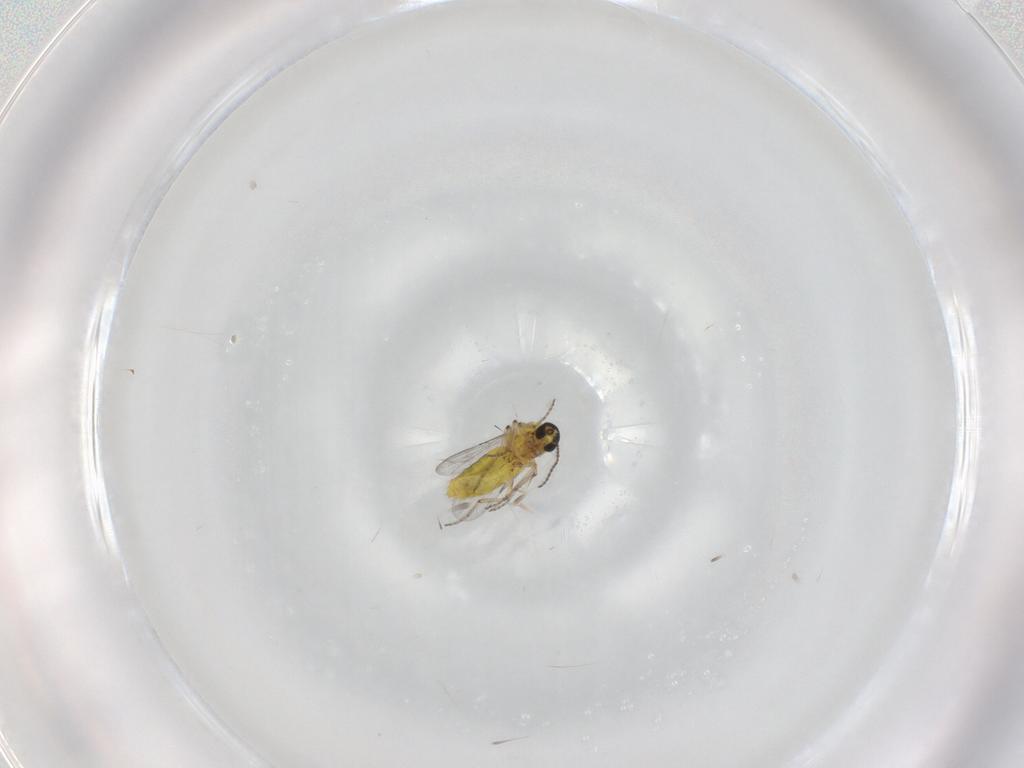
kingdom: Animalia
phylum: Arthropoda
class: Insecta
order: Diptera
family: Ceratopogonidae
